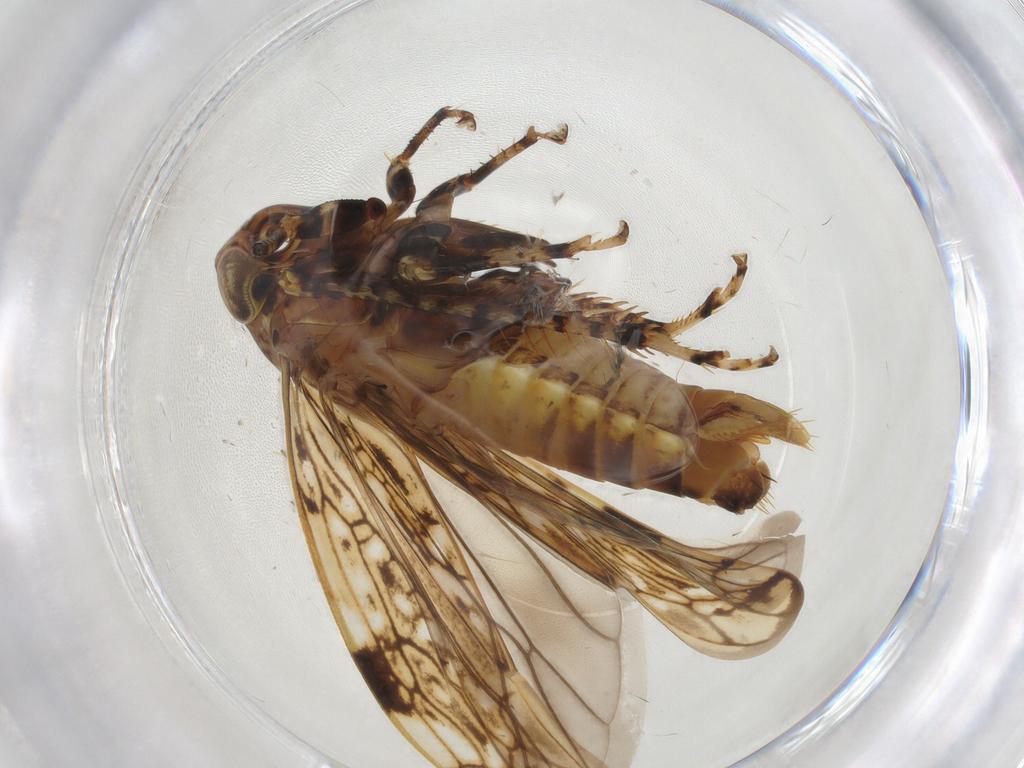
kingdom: Animalia
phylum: Arthropoda
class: Insecta
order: Hemiptera
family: Cicadellidae
